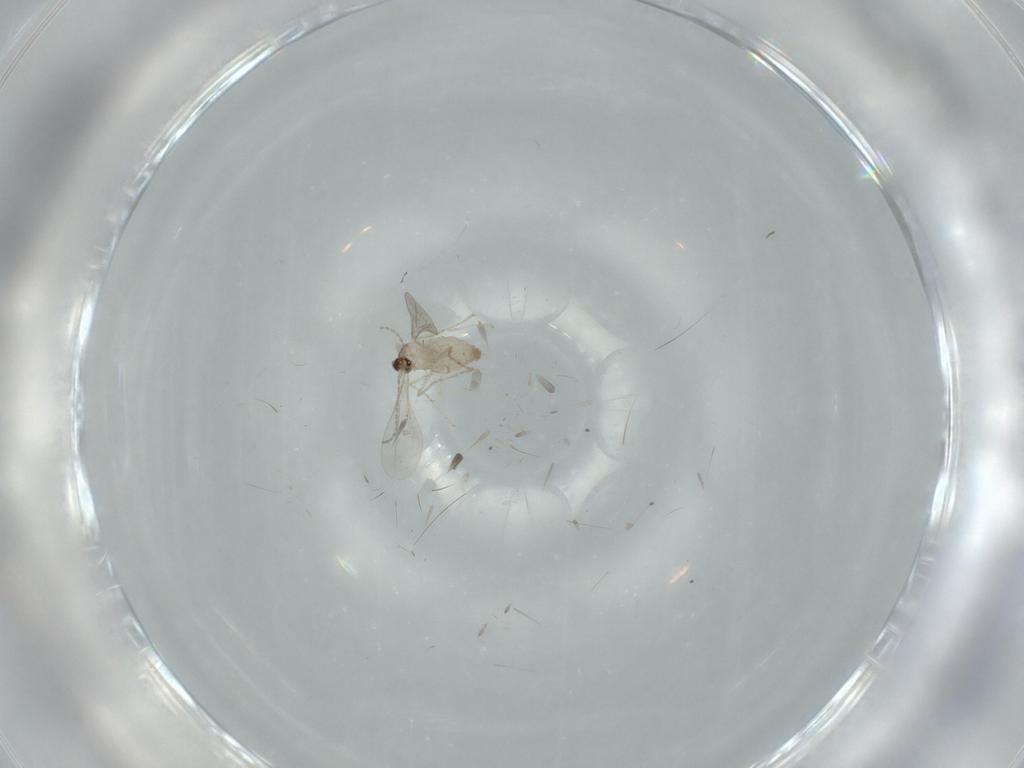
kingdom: Animalia
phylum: Arthropoda
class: Insecta
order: Diptera
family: Cecidomyiidae
